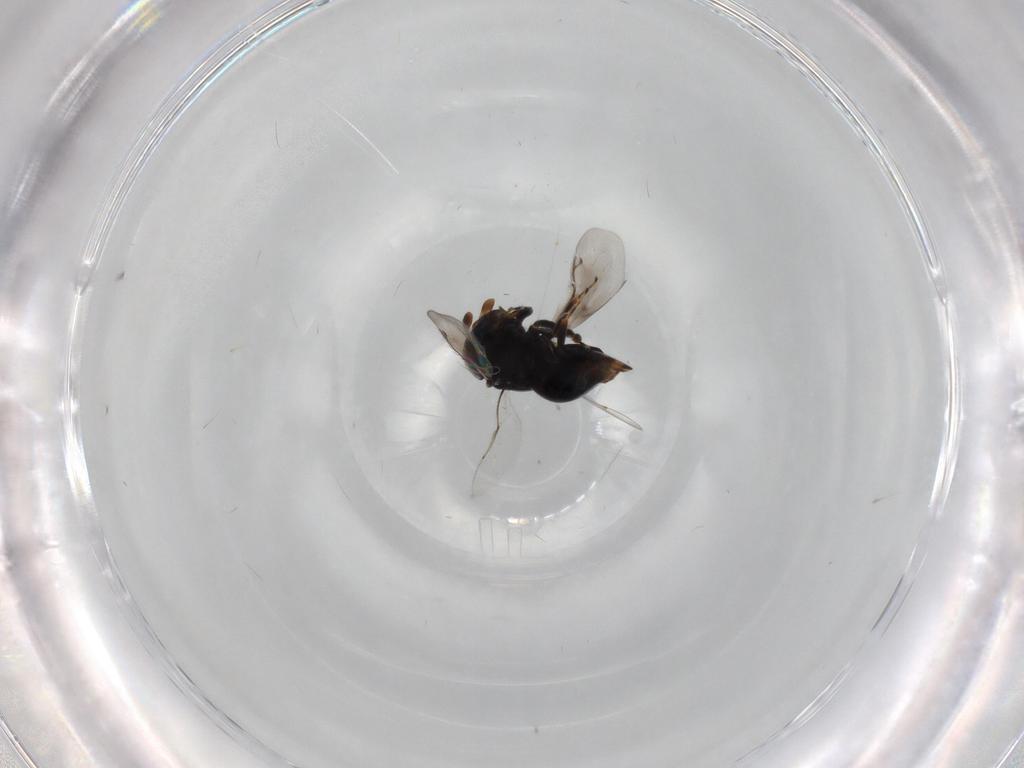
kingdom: Animalia
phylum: Arthropoda
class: Insecta
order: Hymenoptera
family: Encyrtidae
